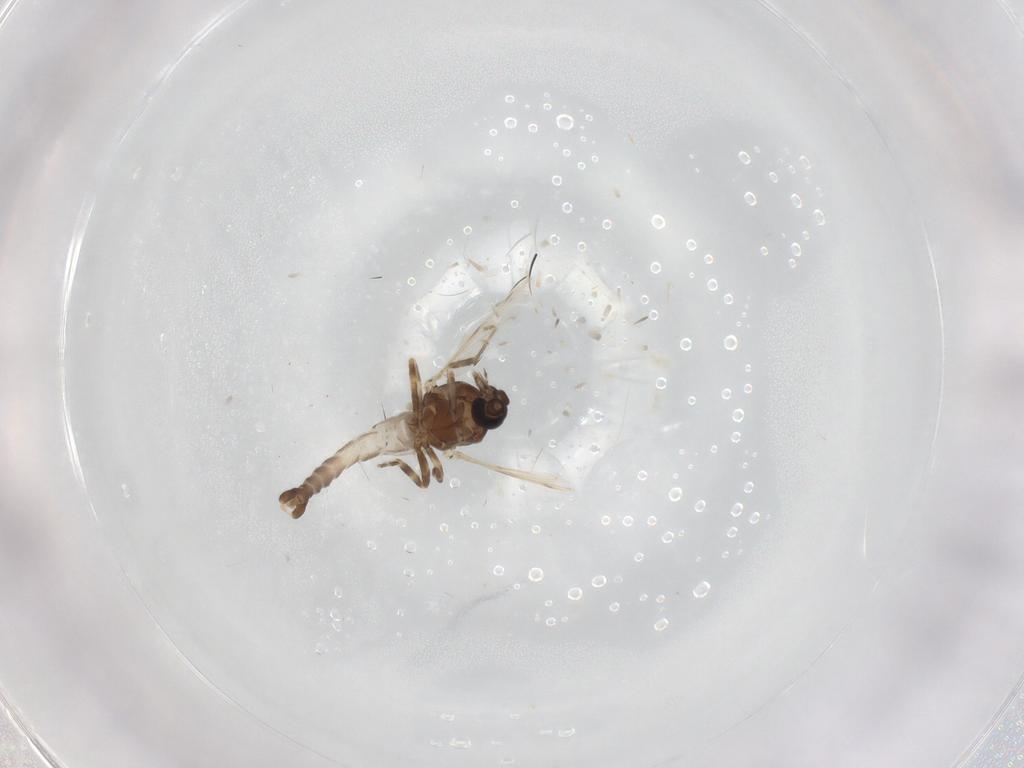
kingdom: Animalia
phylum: Arthropoda
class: Insecta
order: Diptera
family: Ceratopogonidae
